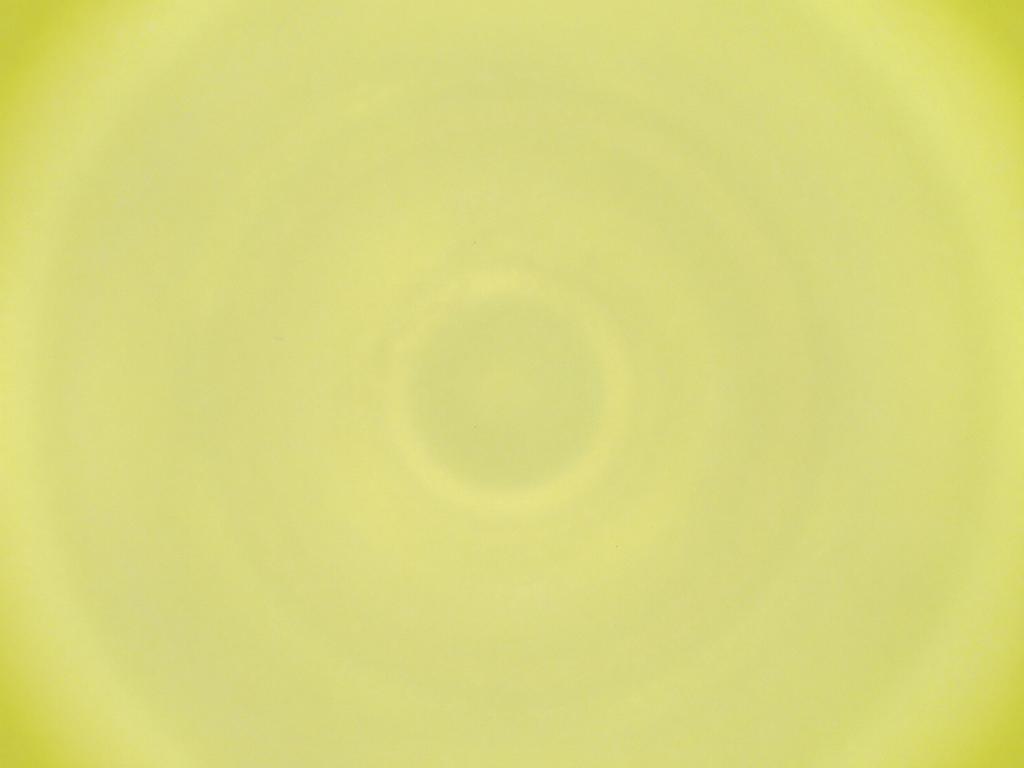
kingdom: Animalia
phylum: Arthropoda
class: Insecta
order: Diptera
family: Cecidomyiidae
